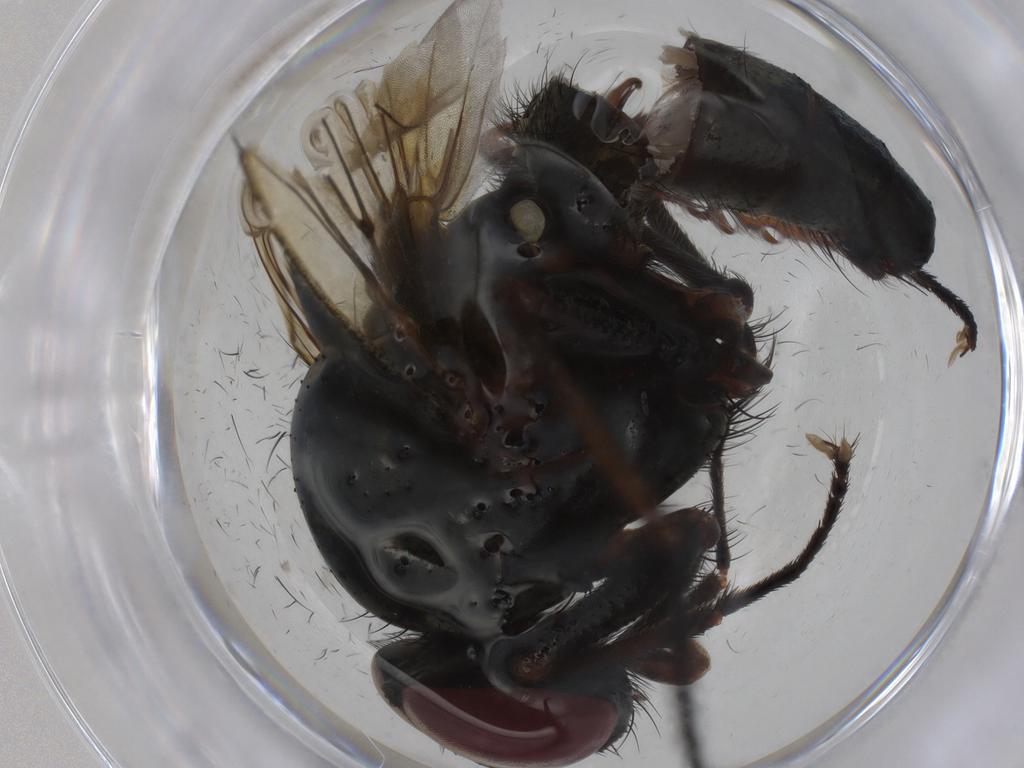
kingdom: Animalia
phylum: Arthropoda
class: Insecta
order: Diptera
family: Anthomyiidae
